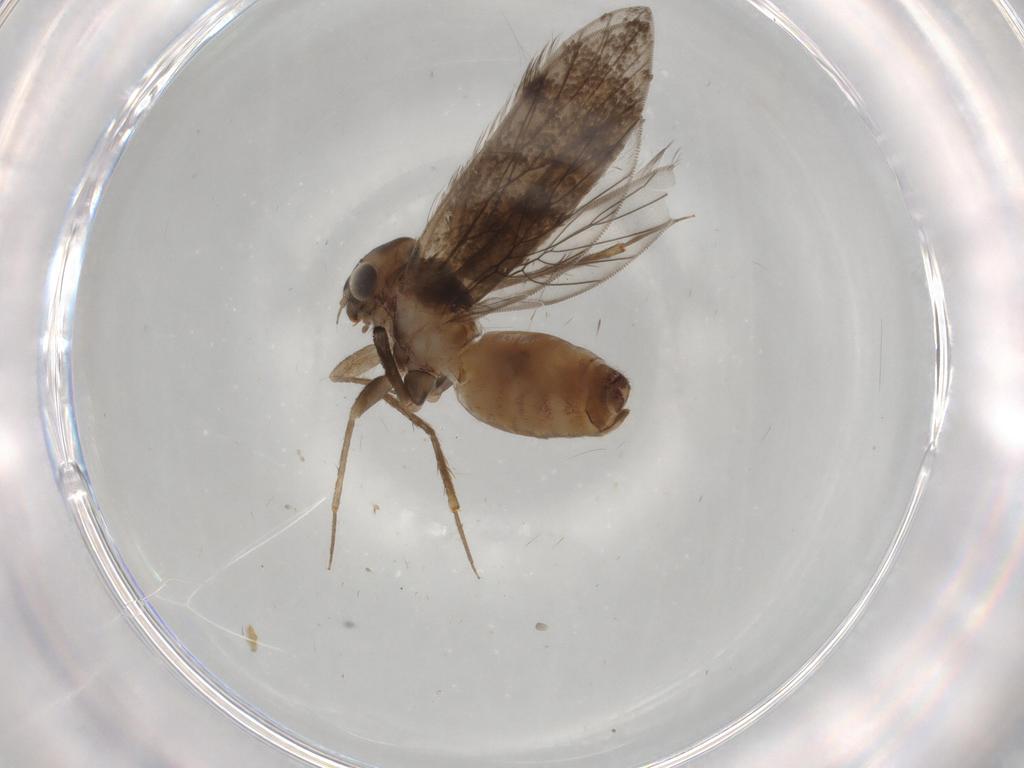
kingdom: Animalia
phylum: Arthropoda
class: Insecta
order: Psocodea
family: Lepidopsocidae
